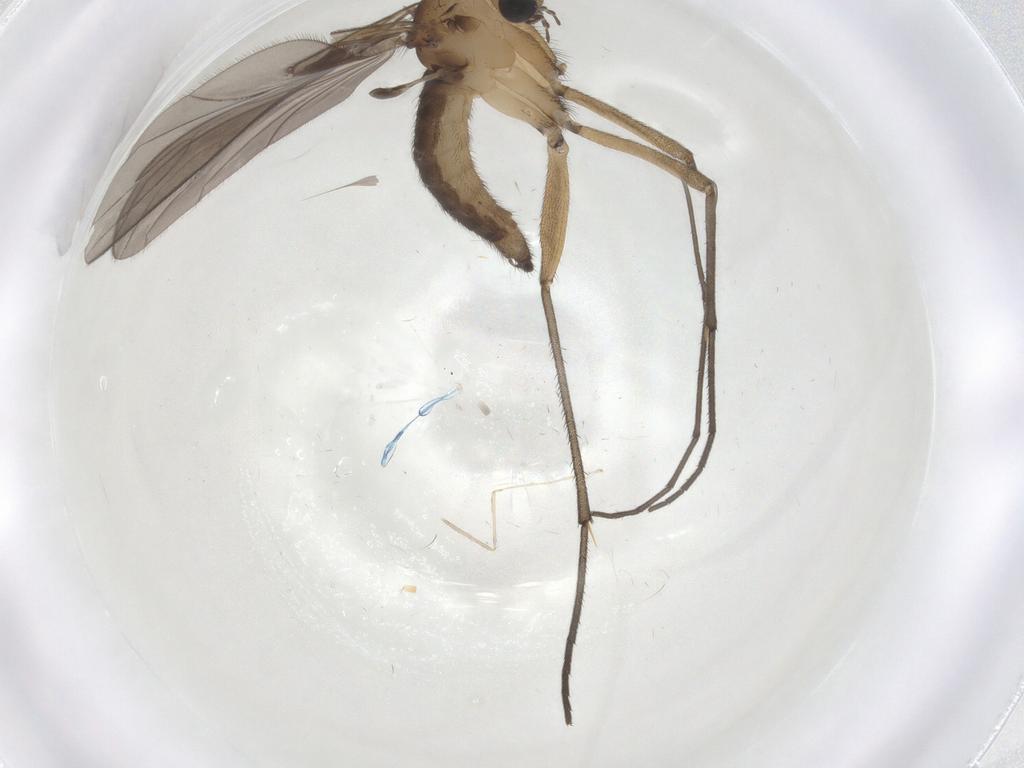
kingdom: Animalia
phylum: Arthropoda
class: Insecta
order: Diptera
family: Sciaridae
